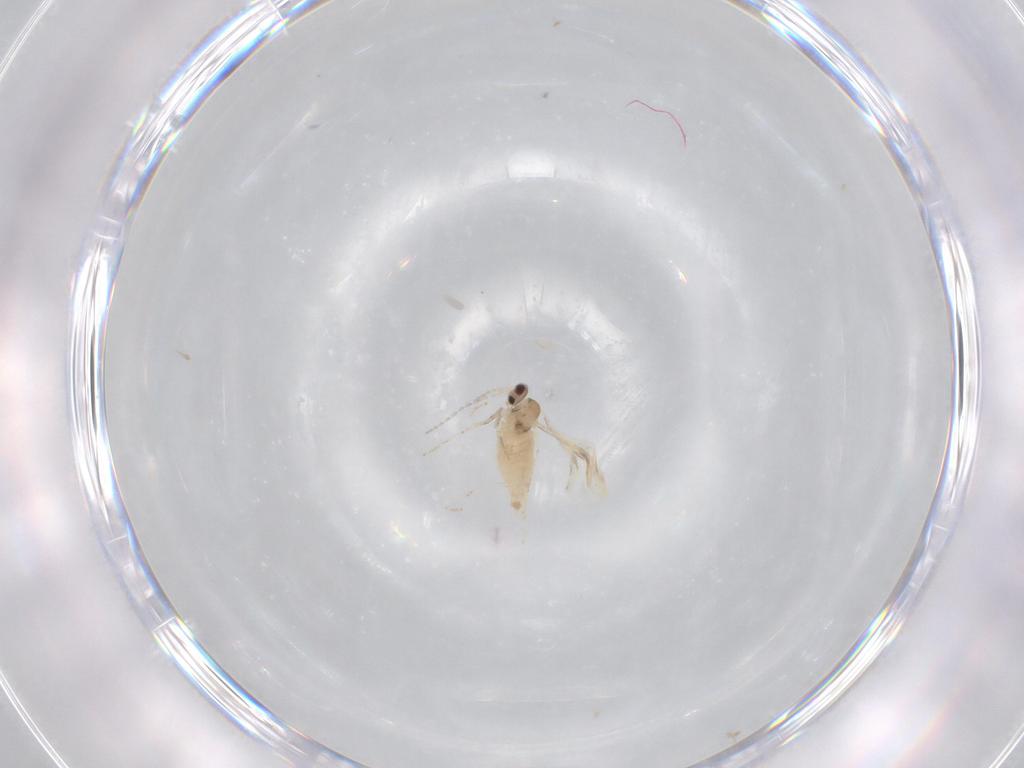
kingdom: Animalia
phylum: Arthropoda
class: Insecta
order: Diptera
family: Cecidomyiidae
